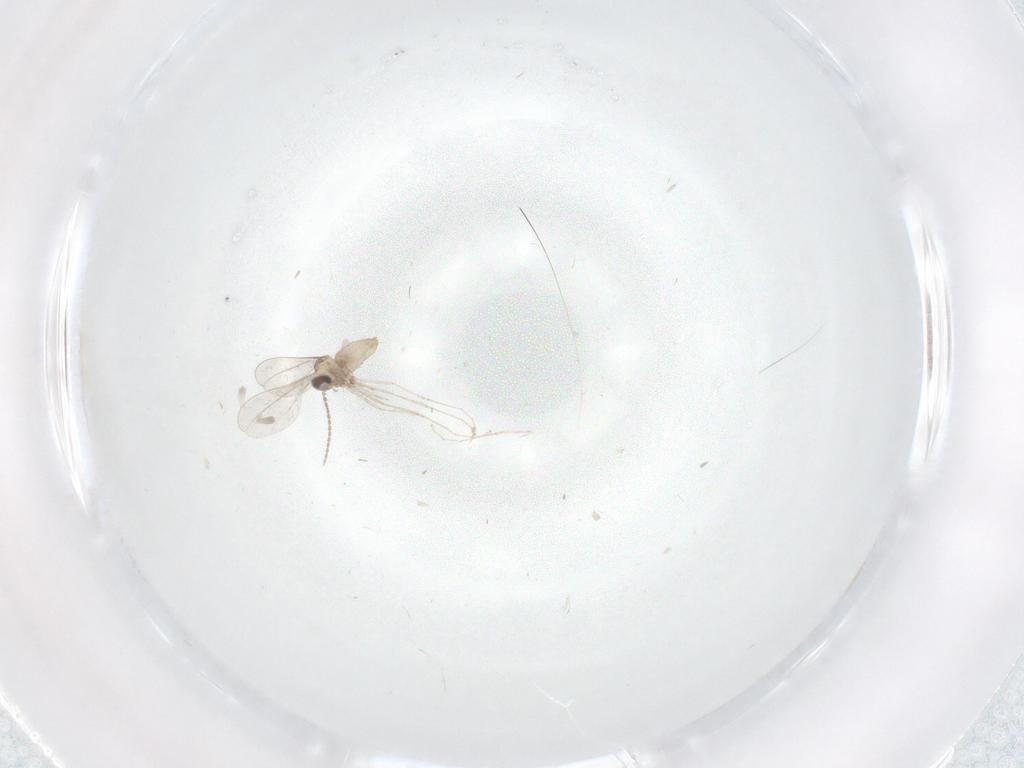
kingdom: Animalia
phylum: Arthropoda
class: Insecta
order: Diptera
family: Cecidomyiidae
